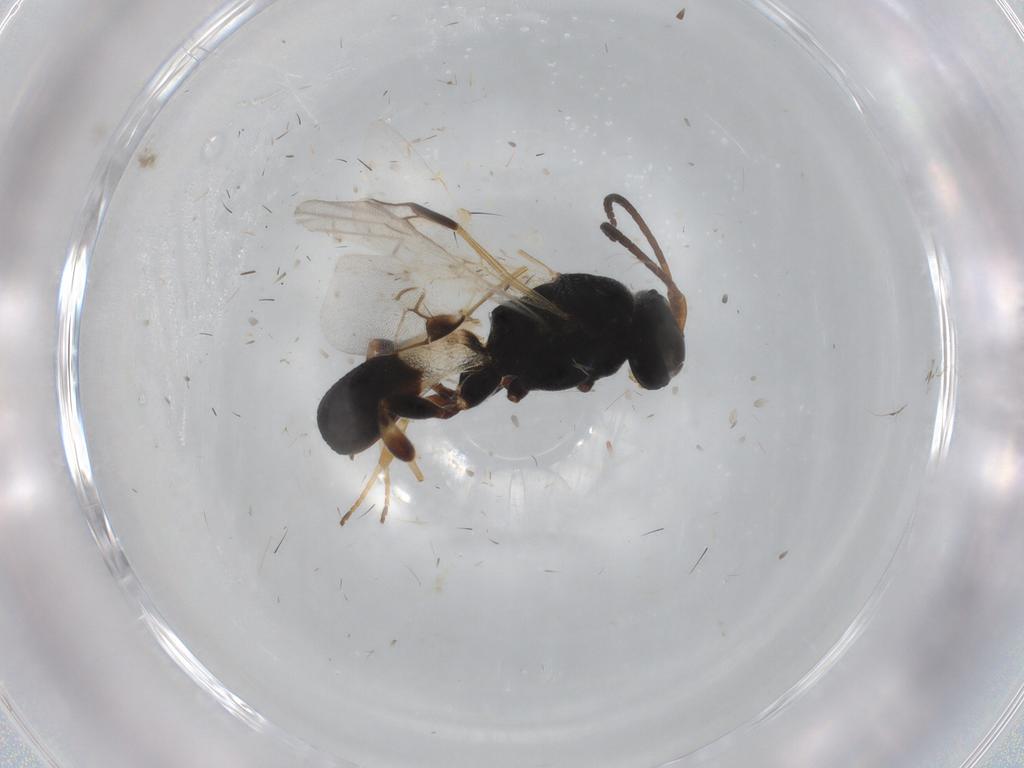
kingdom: Animalia
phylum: Arthropoda
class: Insecta
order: Hymenoptera
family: Braconidae
